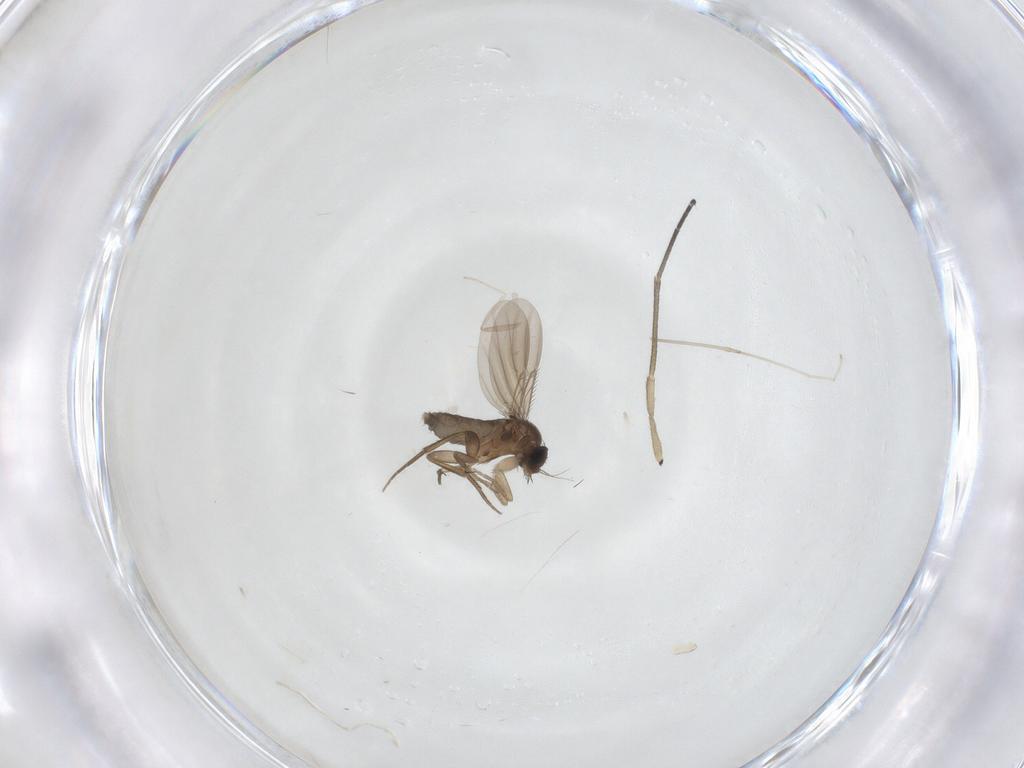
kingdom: Animalia
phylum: Arthropoda
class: Insecta
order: Diptera
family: Phoridae
